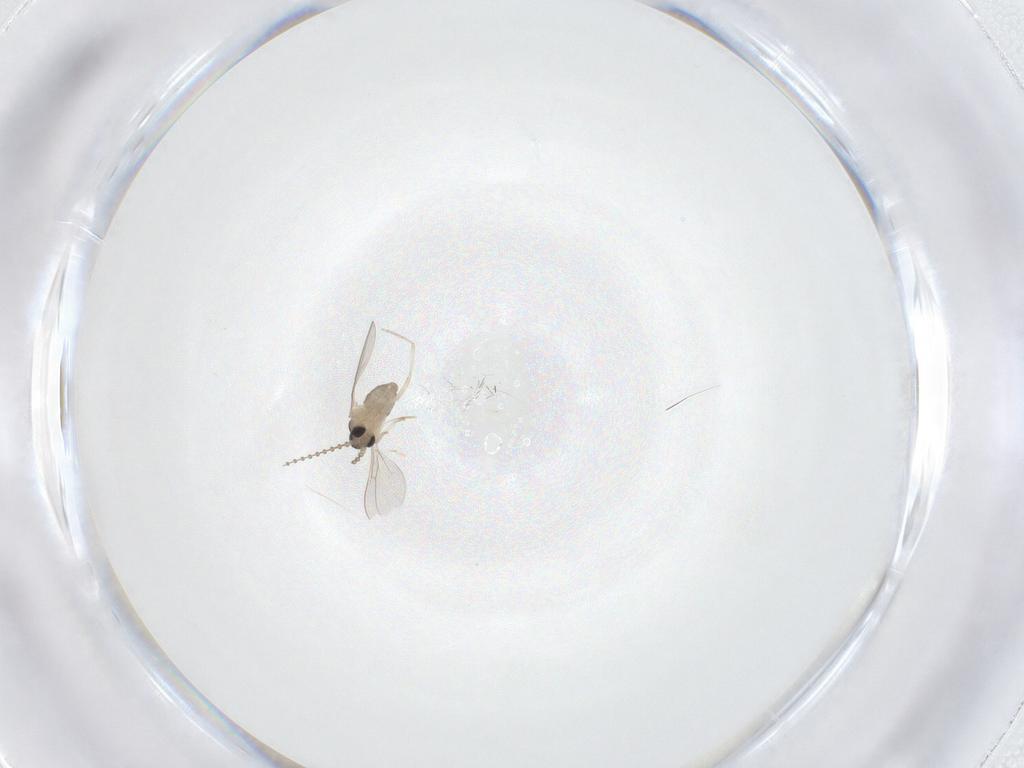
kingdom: Animalia
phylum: Arthropoda
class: Insecta
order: Diptera
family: Cecidomyiidae
